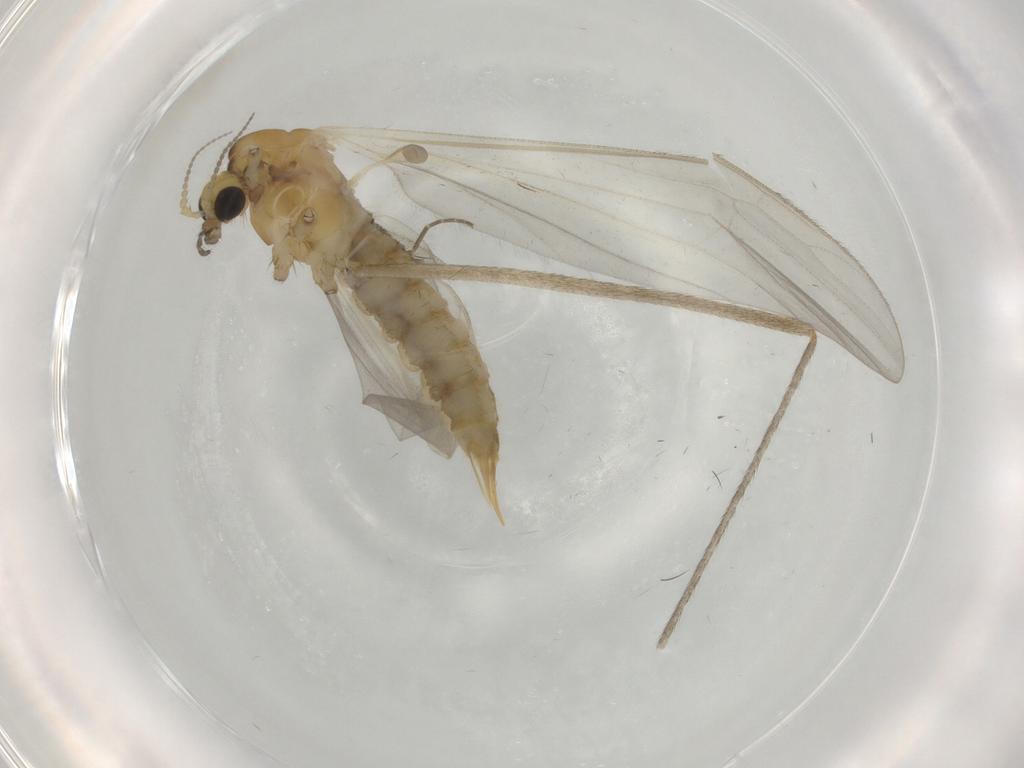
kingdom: Animalia
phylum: Arthropoda
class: Insecta
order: Diptera
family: Limoniidae
